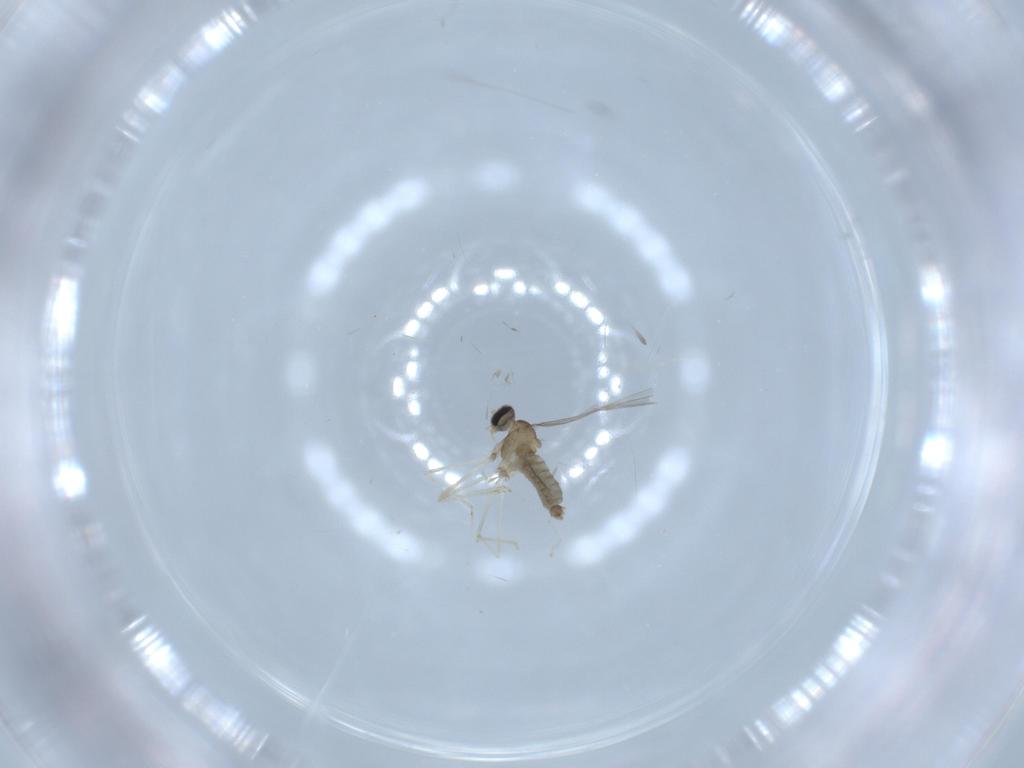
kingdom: Animalia
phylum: Arthropoda
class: Insecta
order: Diptera
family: Cecidomyiidae
